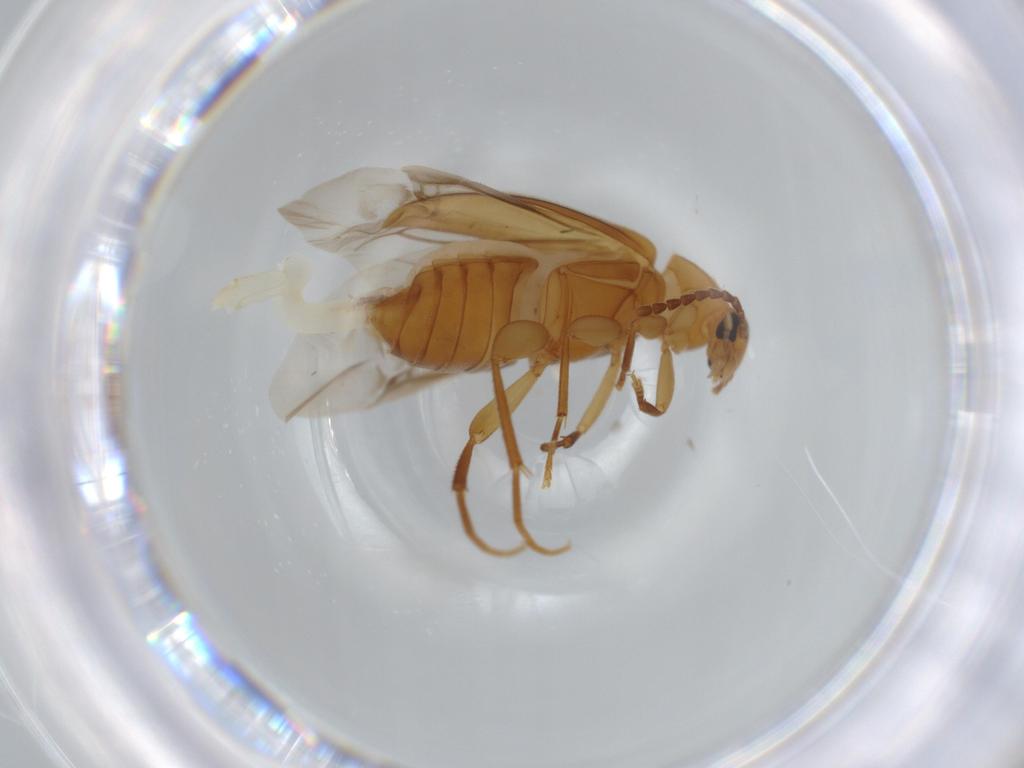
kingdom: Animalia
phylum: Arthropoda
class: Insecta
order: Coleoptera
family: Scraptiidae
